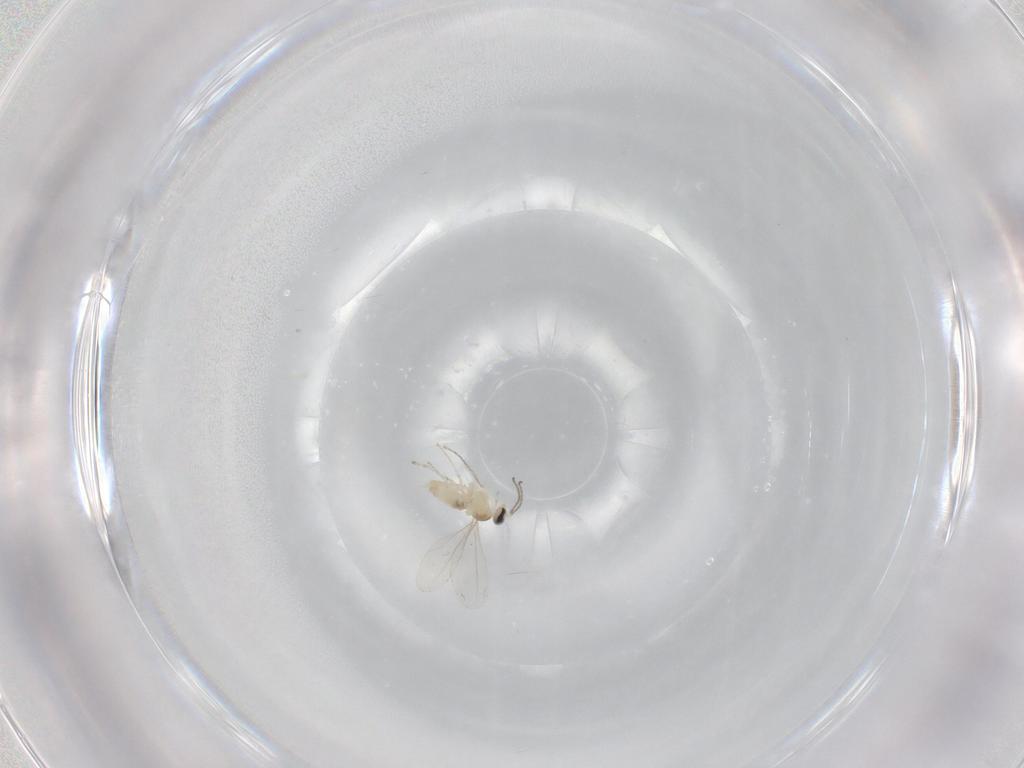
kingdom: Animalia
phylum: Arthropoda
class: Insecta
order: Diptera
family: Cecidomyiidae
